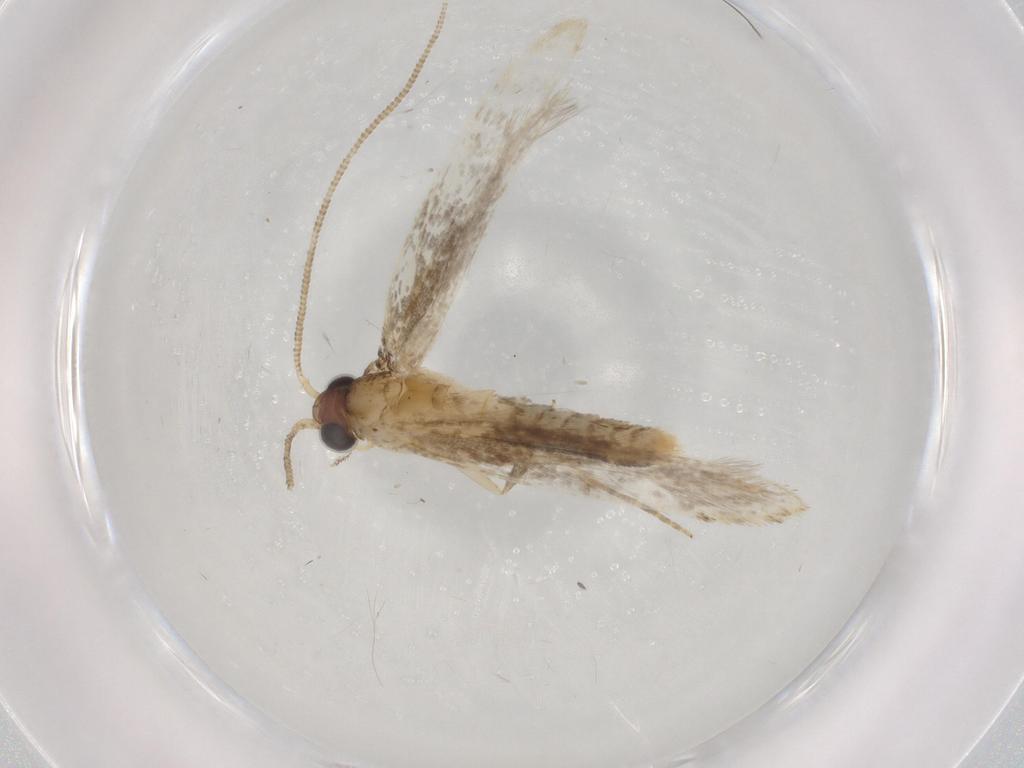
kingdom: Animalia
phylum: Arthropoda
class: Insecta
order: Lepidoptera
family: Tineidae
